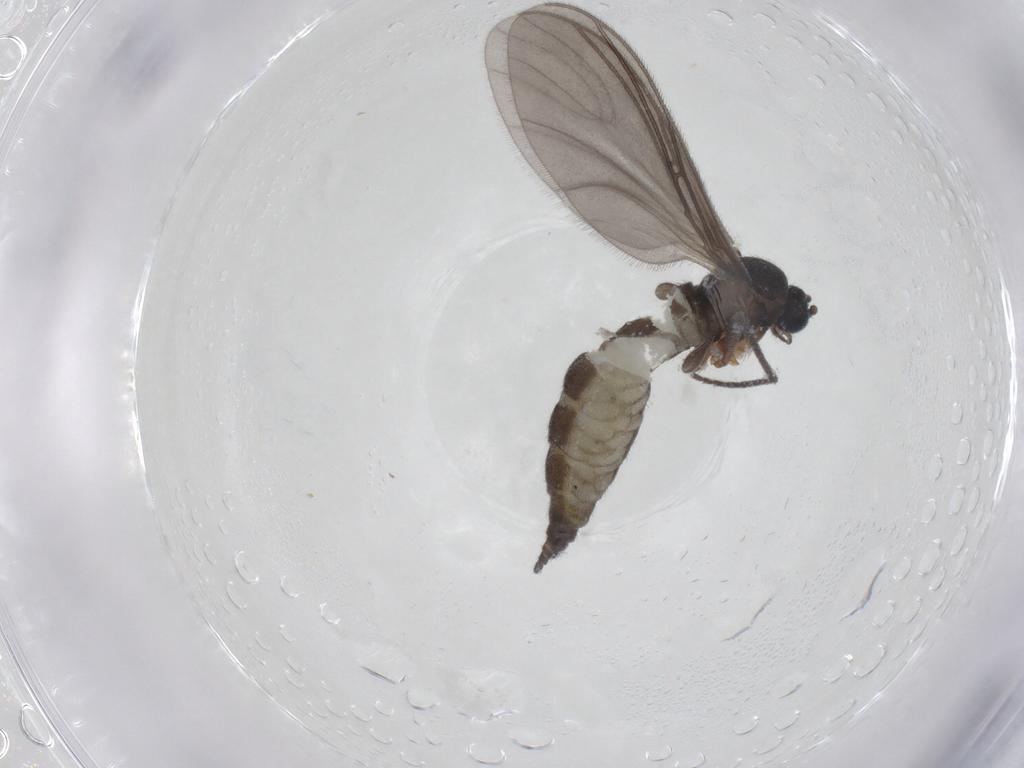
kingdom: Animalia
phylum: Arthropoda
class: Insecta
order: Diptera
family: Cecidomyiidae
